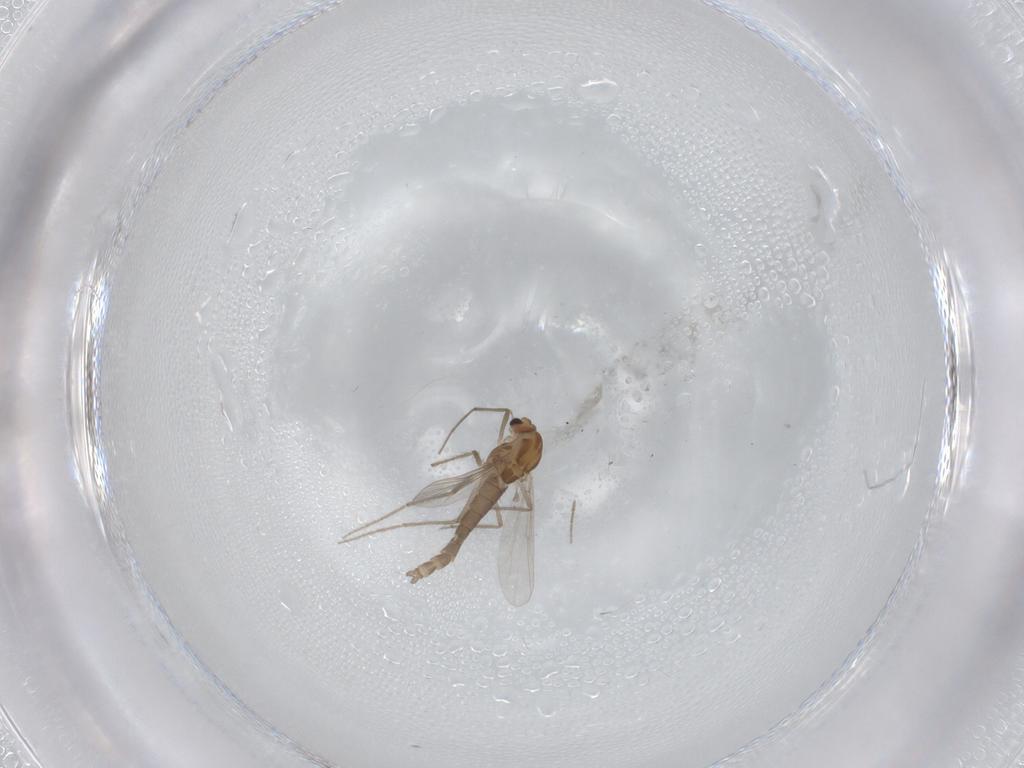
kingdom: Animalia
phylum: Arthropoda
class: Insecta
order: Diptera
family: Chironomidae
